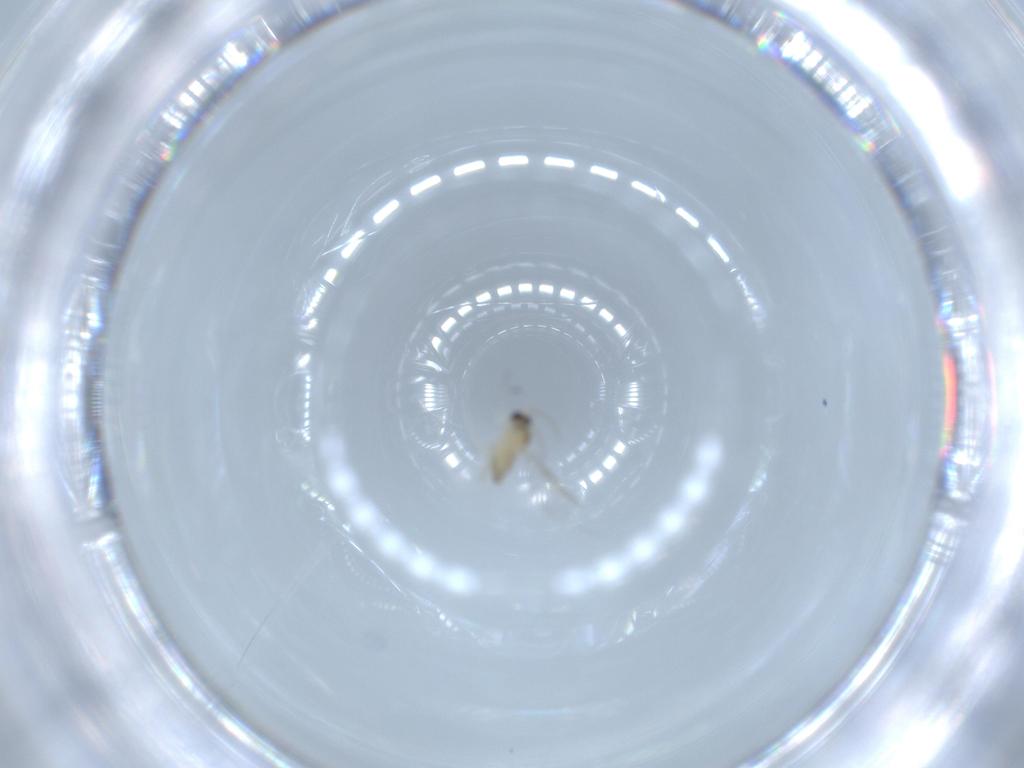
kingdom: Animalia
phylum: Arthropoda
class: Insecta
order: Diptera
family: Cecidomyiidae
